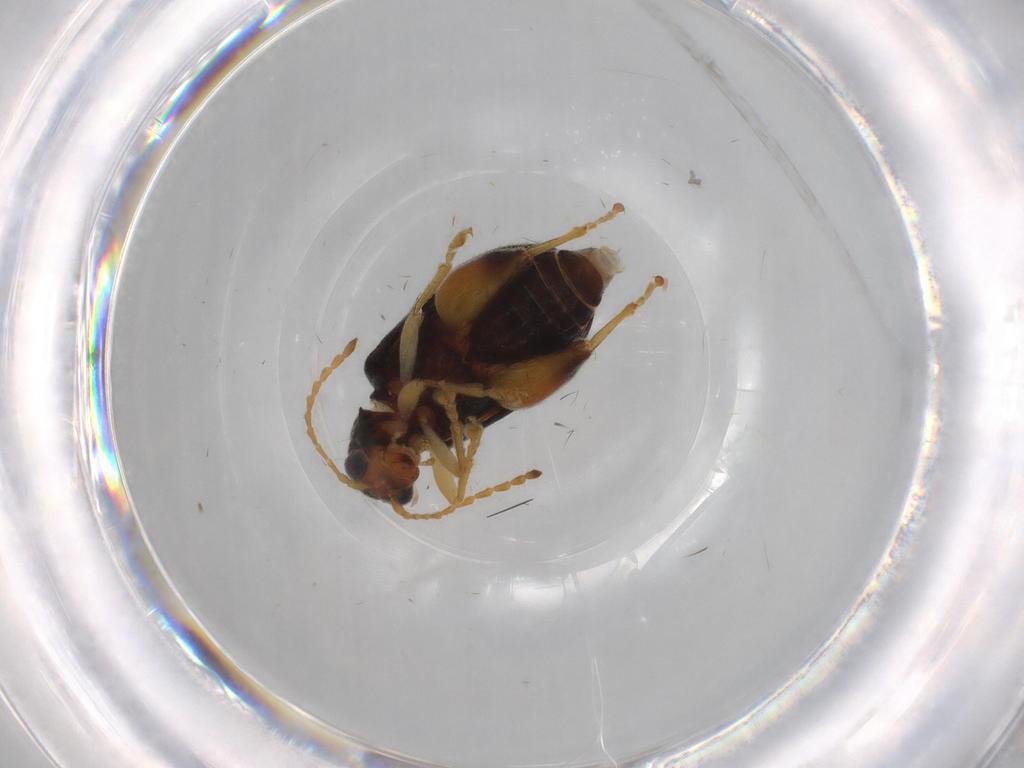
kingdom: Animalia
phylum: Arthropoda
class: Insecta
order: Coleoptera
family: Chrysomelidae
